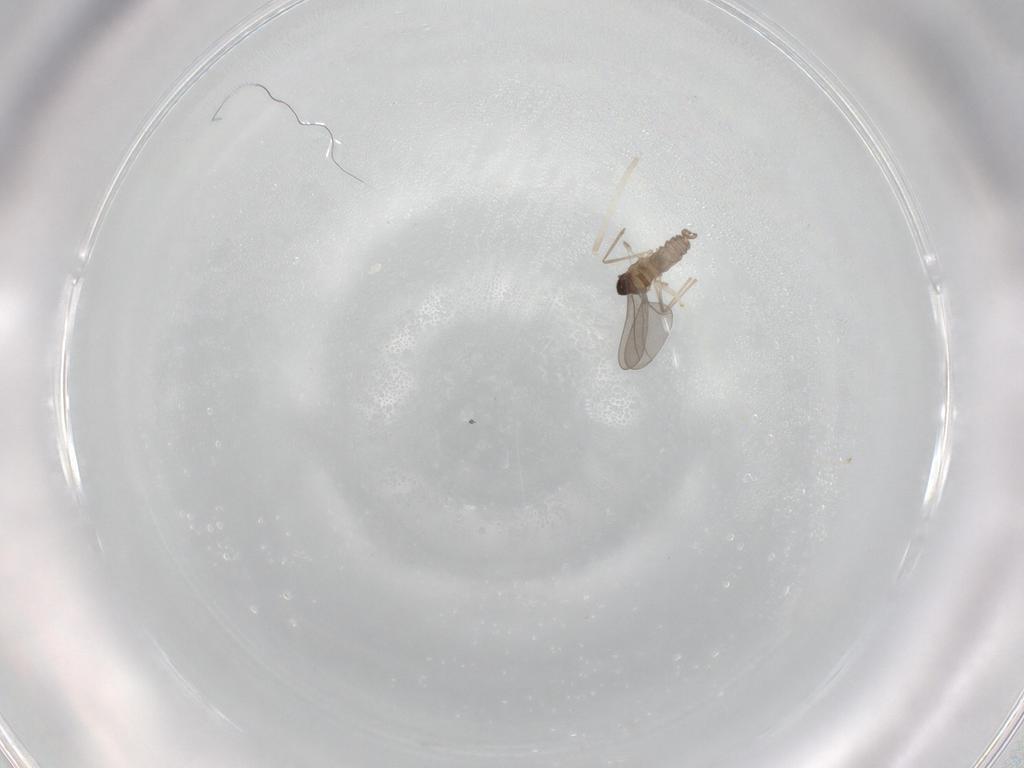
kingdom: Animalia
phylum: Arthropoda
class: Insecta
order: Diptera
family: Cecidomyiidae
